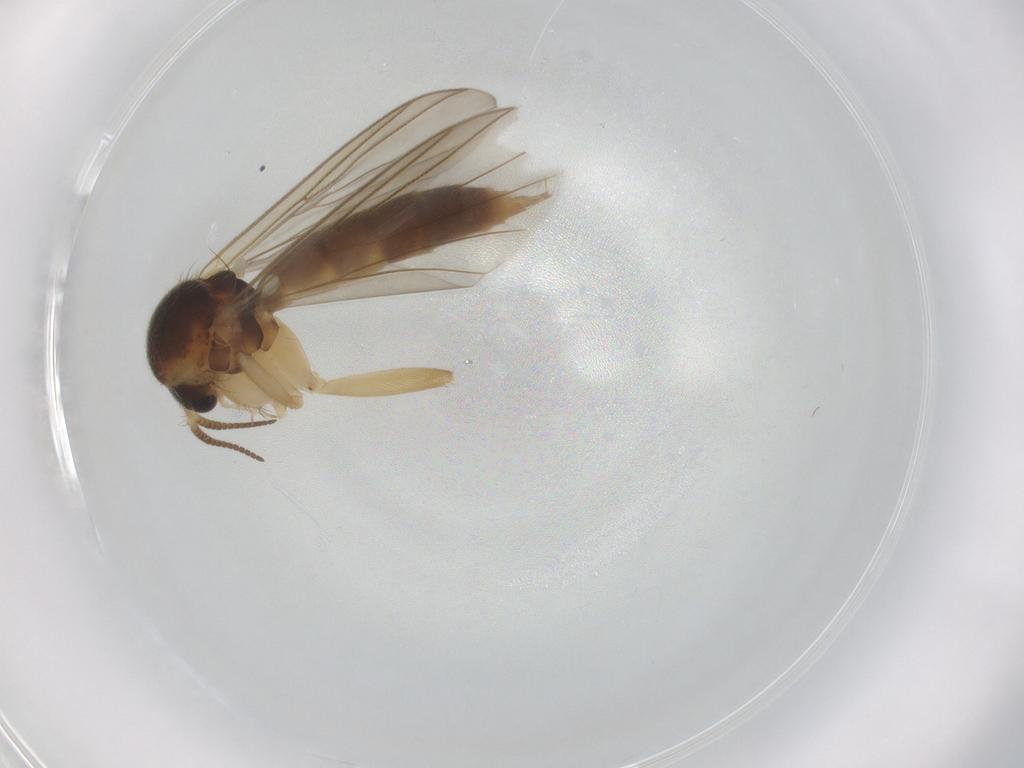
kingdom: Animalia
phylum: Arthropoda
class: Insecta
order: Diptera
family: Mycetophilidae
